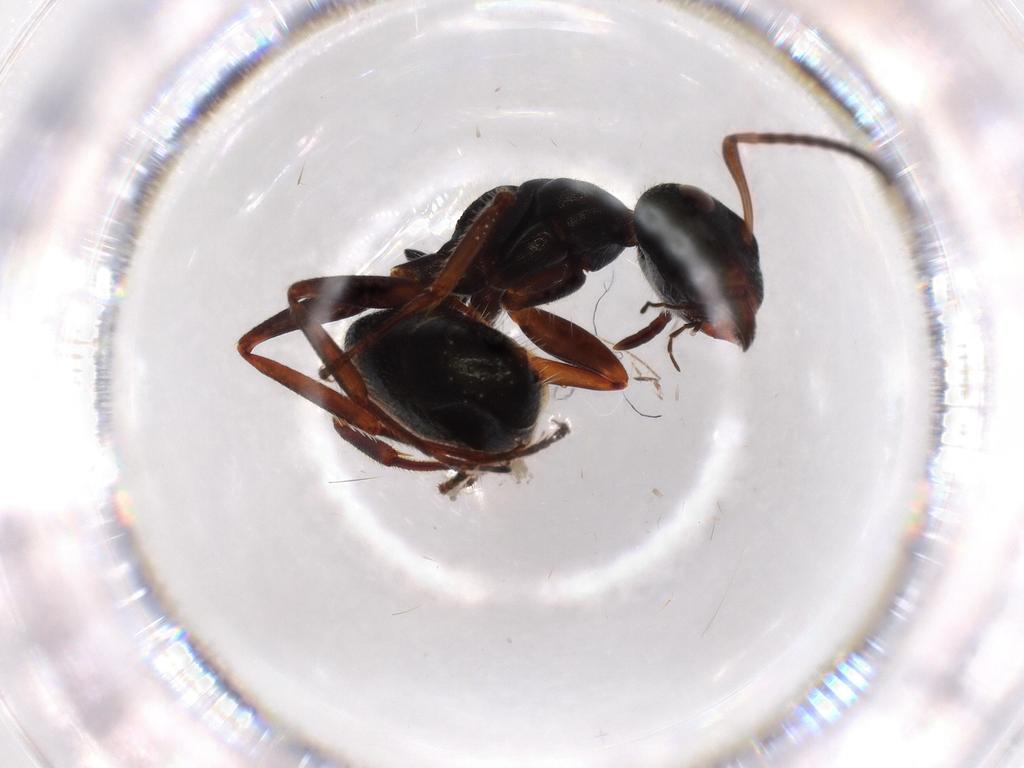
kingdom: Animalia
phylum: Arthropoda
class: Insecta
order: Hymenoptera
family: Formicidae
